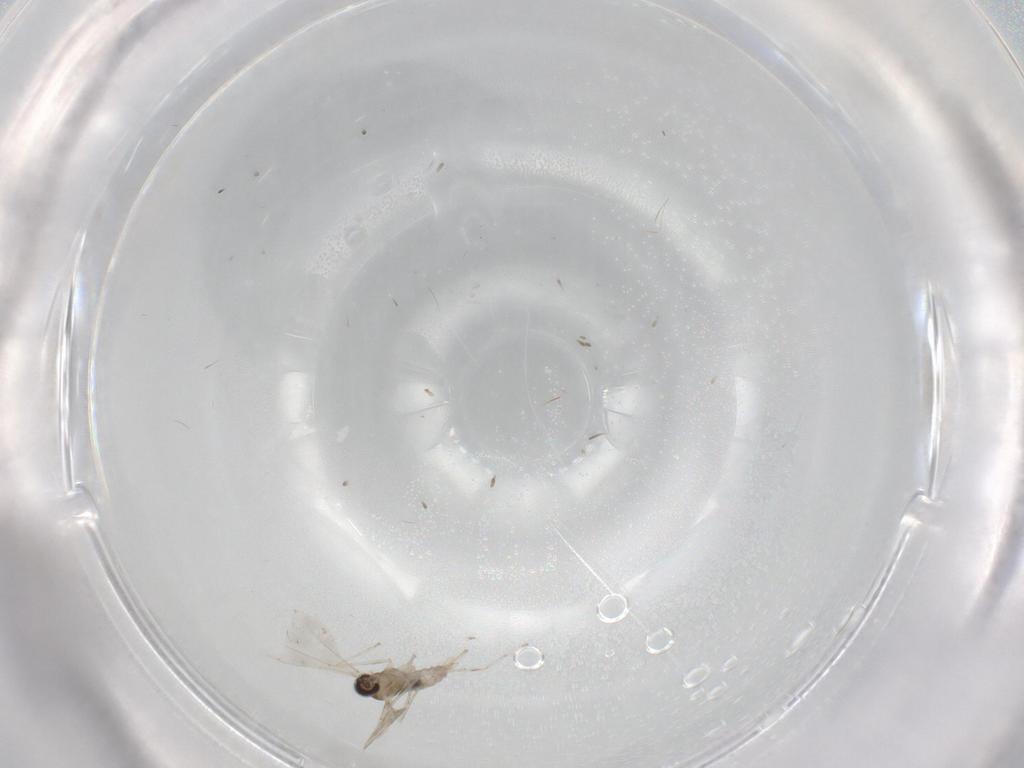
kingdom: Animalia
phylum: Arthropoda
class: Insecta
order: Diptera
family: Cecidomyiidae
